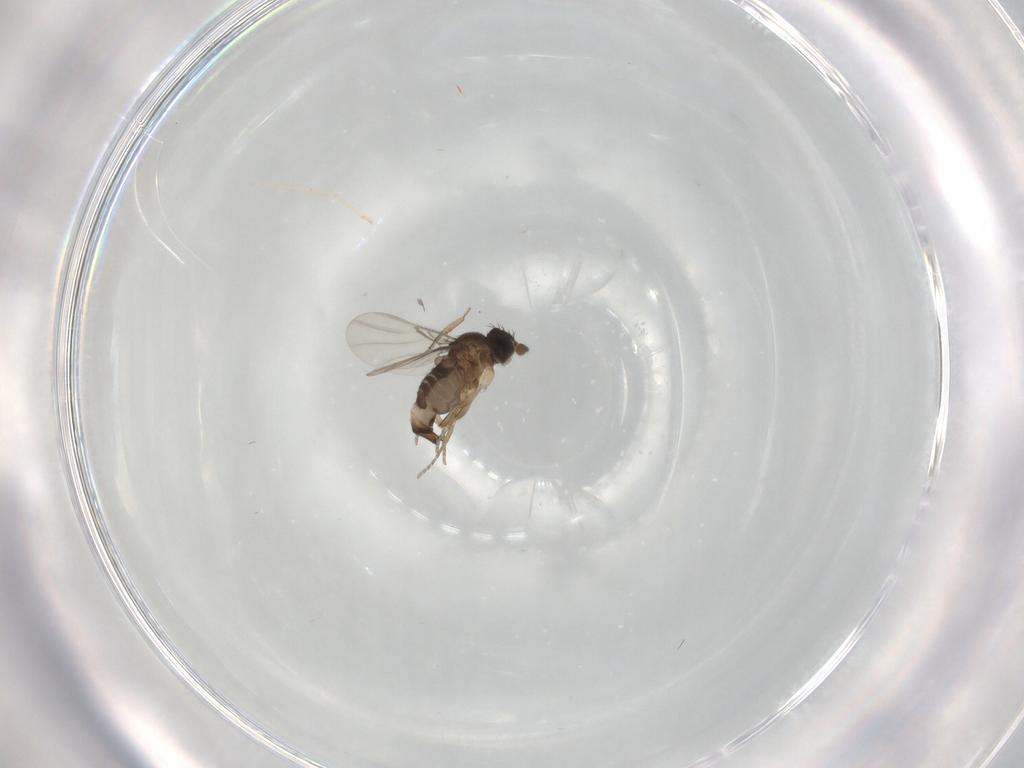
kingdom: Animalia
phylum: Arthropoda
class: Insecta
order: Diptera
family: Phoridae
